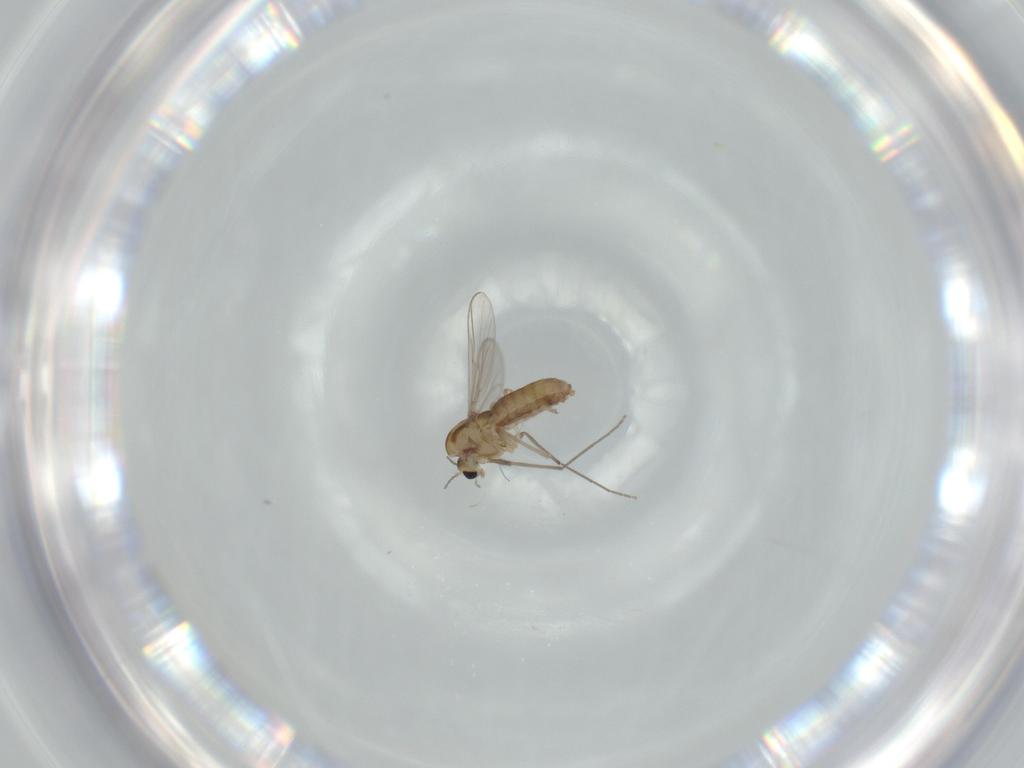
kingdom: Animalia
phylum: Arthropoda
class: Insecta
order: Diptera
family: Chironomidae
